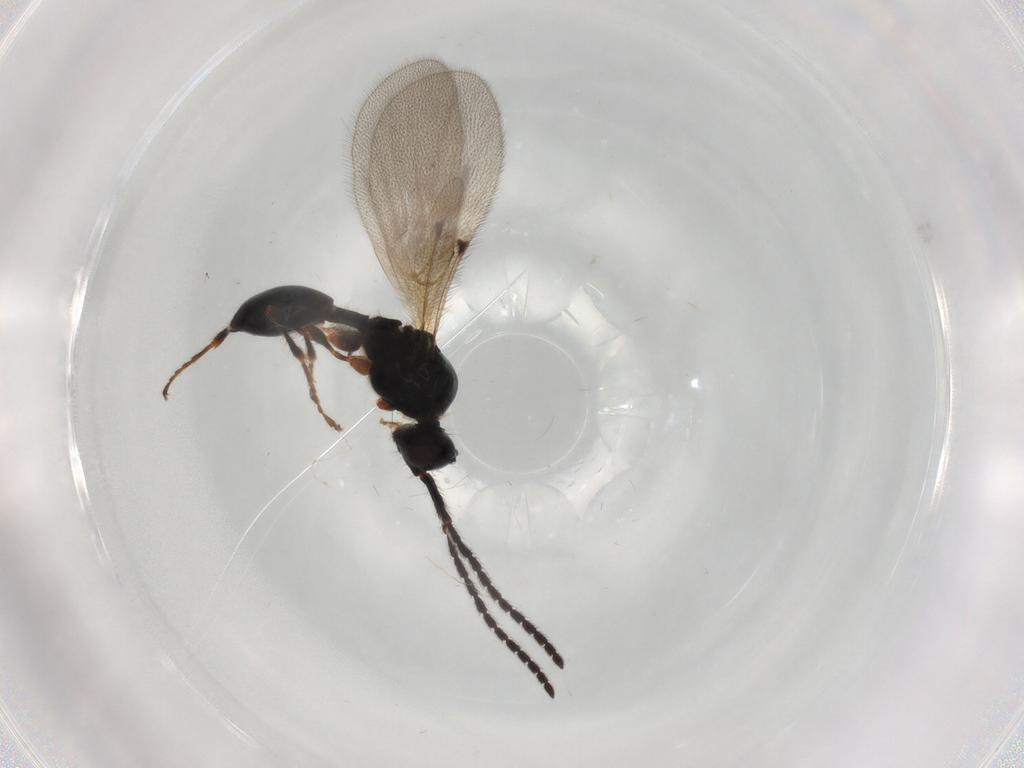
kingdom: Animalia
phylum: Arthropoda
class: Insecta
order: Hymenoptera
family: Diapriidae
